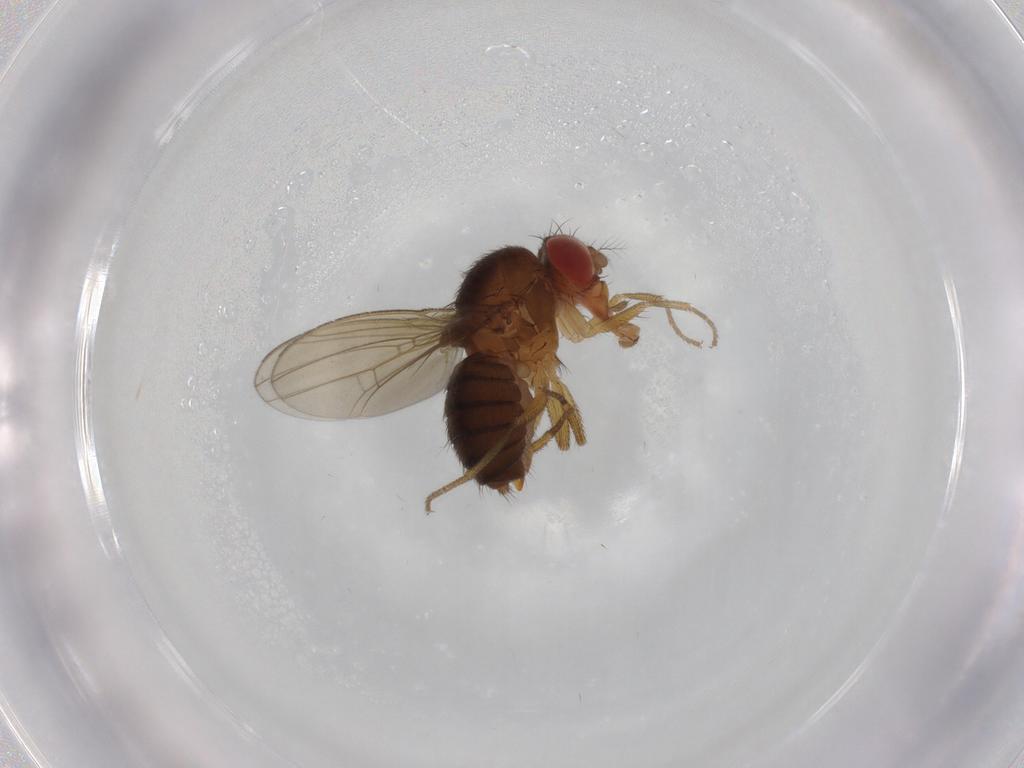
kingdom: Animalia
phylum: Arthropoda
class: Insecta
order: Diptera
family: Drosophilidae
